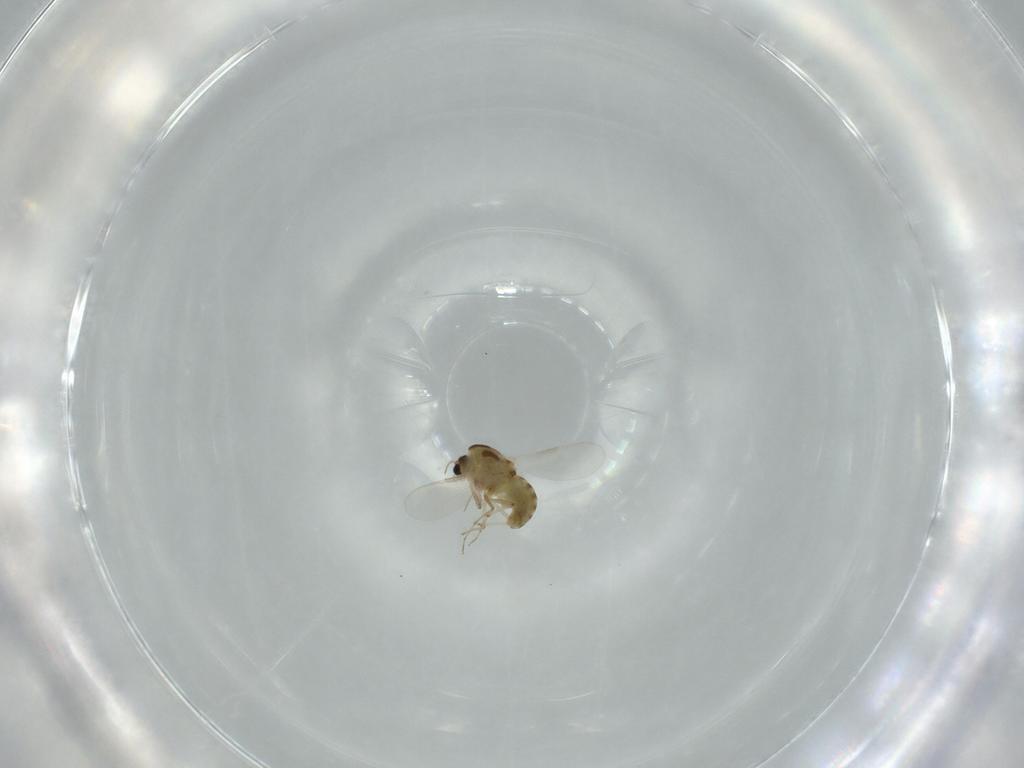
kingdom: Animalia
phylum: Arthropoda
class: Insecta
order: Diptera
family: Chironomidae
